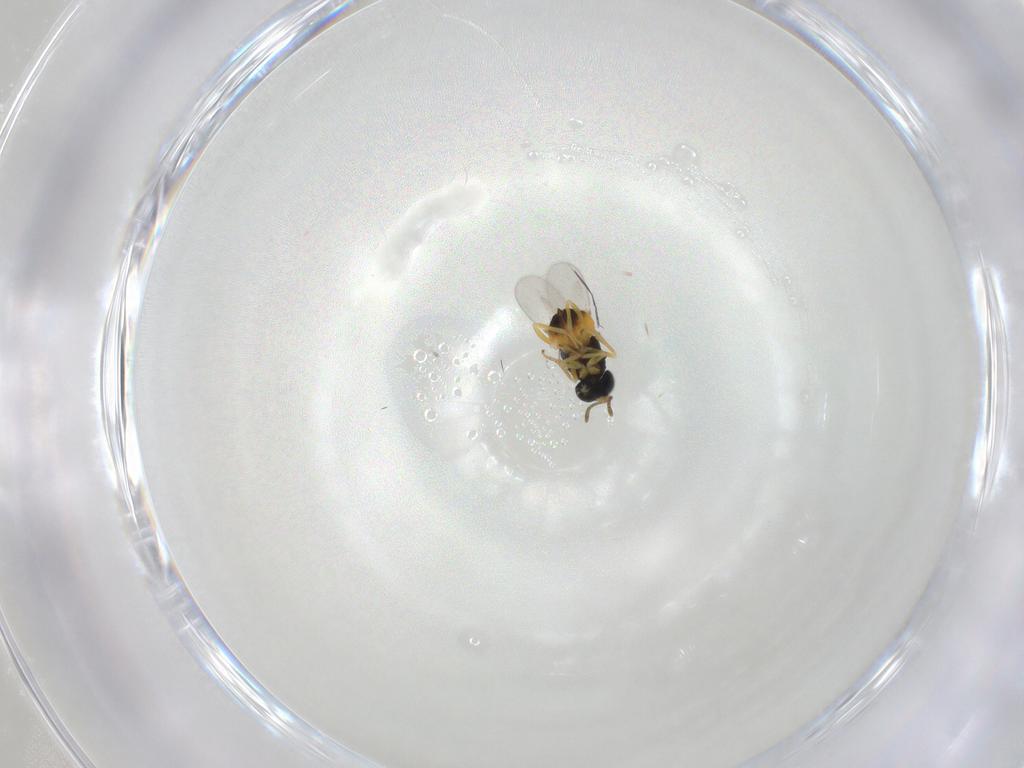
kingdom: Animalia
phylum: Arthropoda
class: Insecta
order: Hymenoptera
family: Encyrtidae
